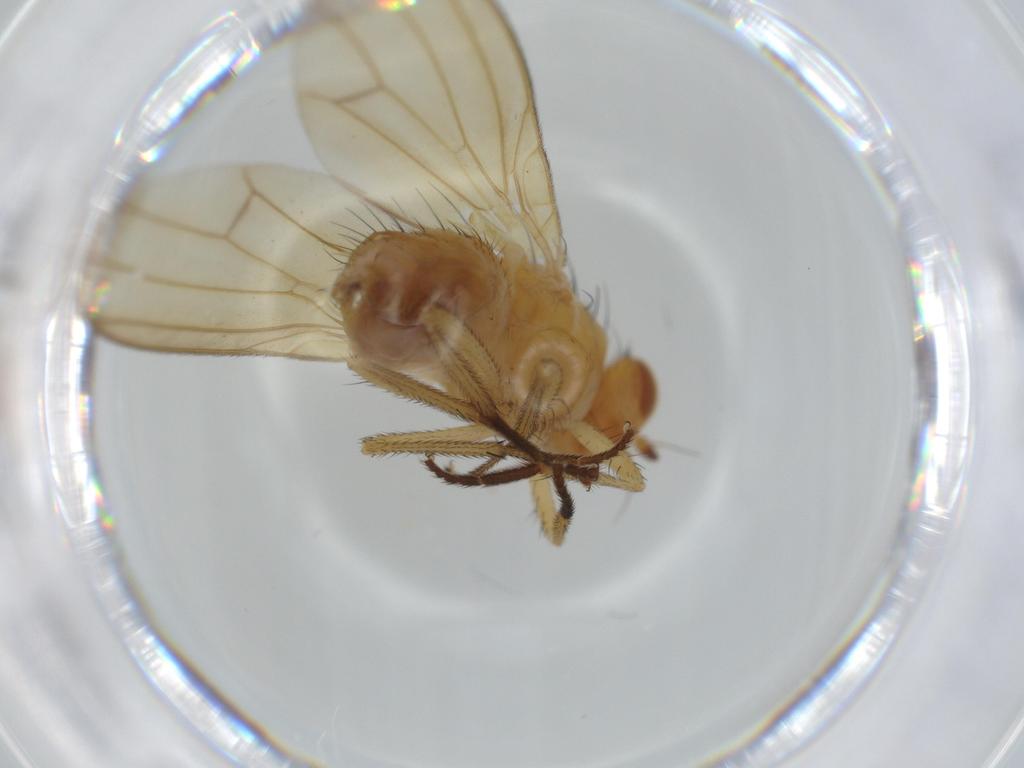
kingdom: Animalia
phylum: Arthropoda
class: Insecta
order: Diptera
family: Lauxaniidae
